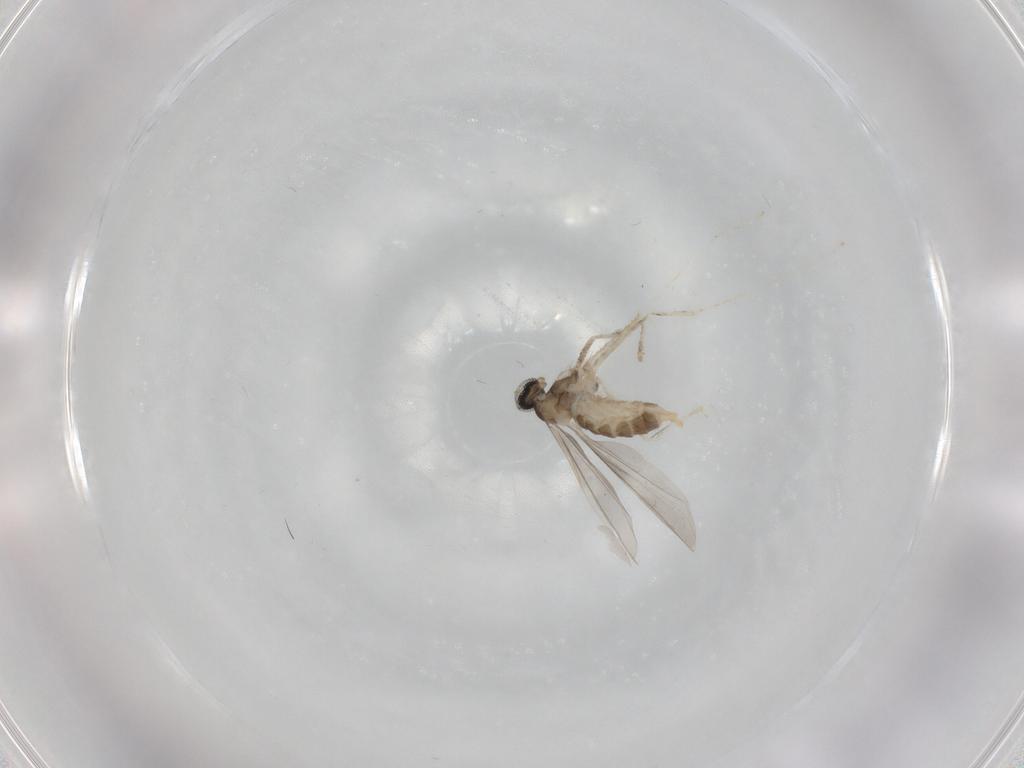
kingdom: Animalia
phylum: Arthropoda
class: Insecta
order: Diptera
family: Cecidomyiidae
